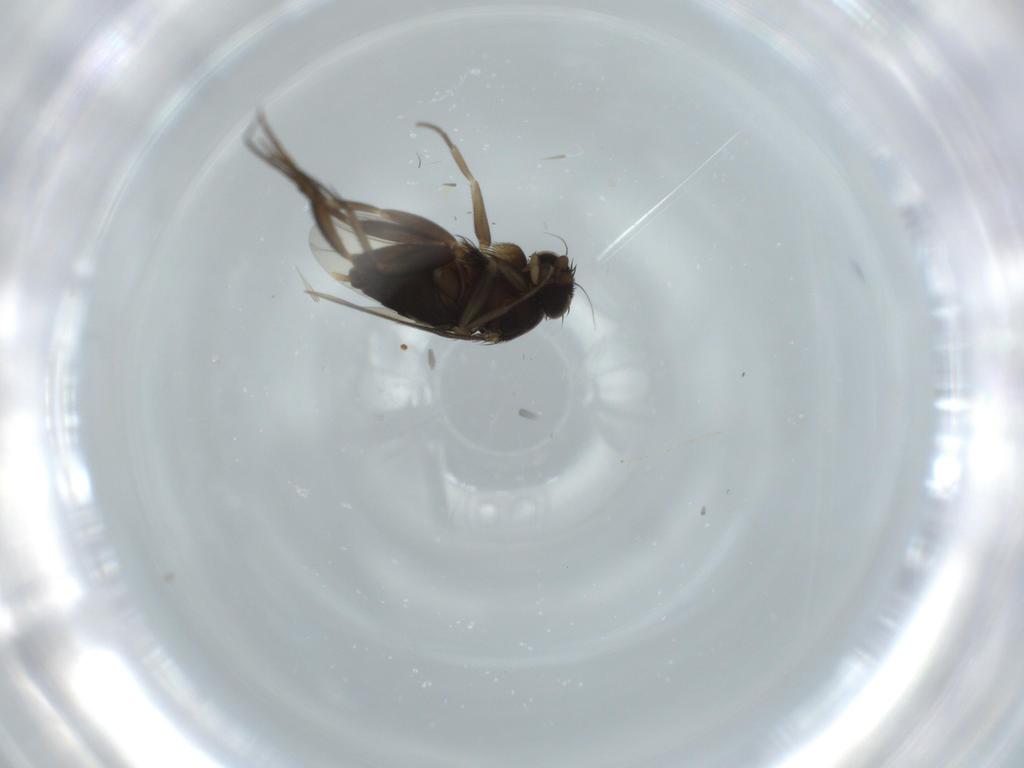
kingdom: Animalia
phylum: Arthropoda
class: Insecta
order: Diptera
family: Phoridae
